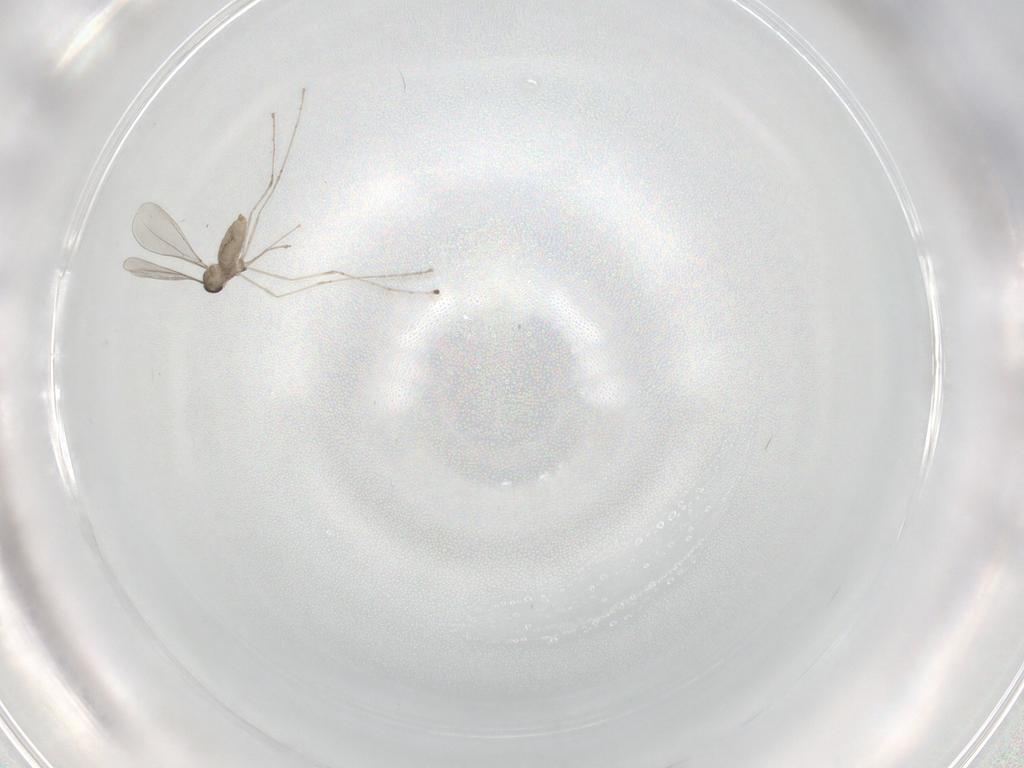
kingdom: Animalia
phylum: Arthropoda
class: Insecta
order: Diptera
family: Cecidomyiidae
